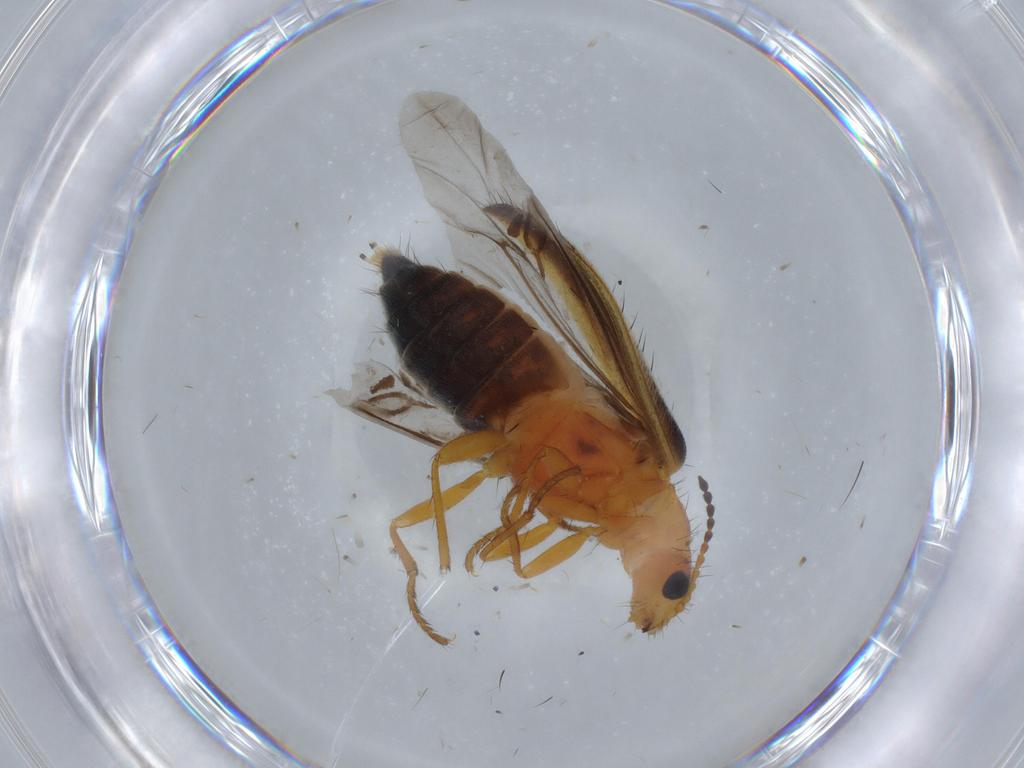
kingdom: Animalia
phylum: Arthropoda
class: Insecta
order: Coleoptera
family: Melyridae
